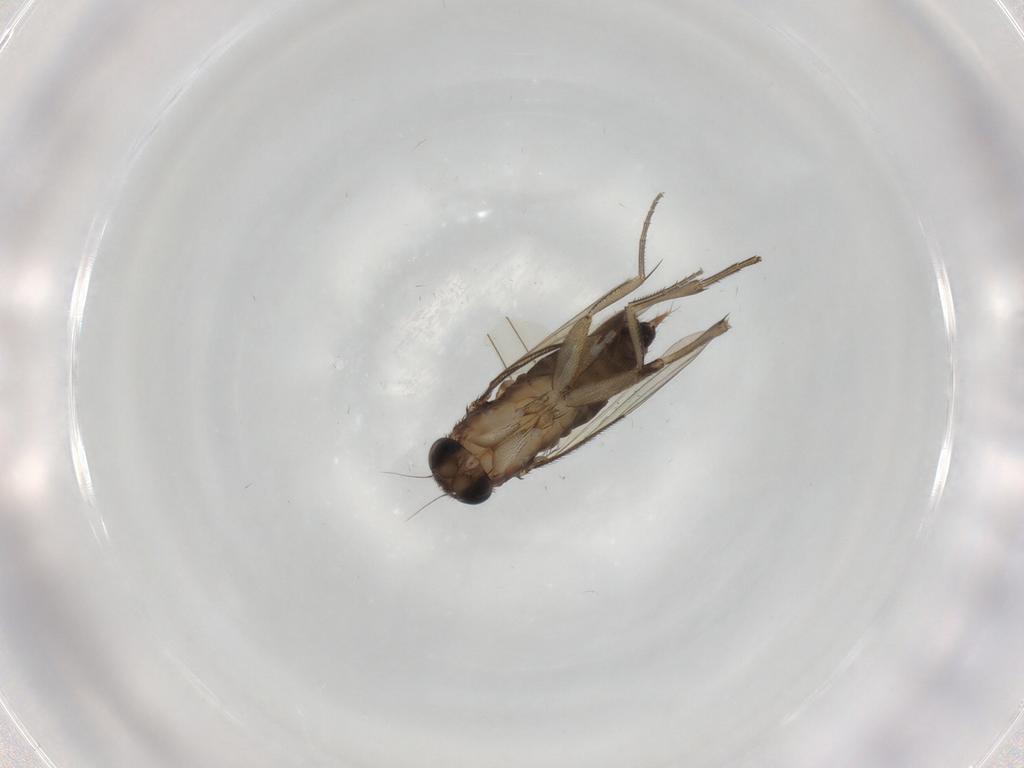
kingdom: Animalia
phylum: Arthropoda
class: Insecta
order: Diptera
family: Phoridae
